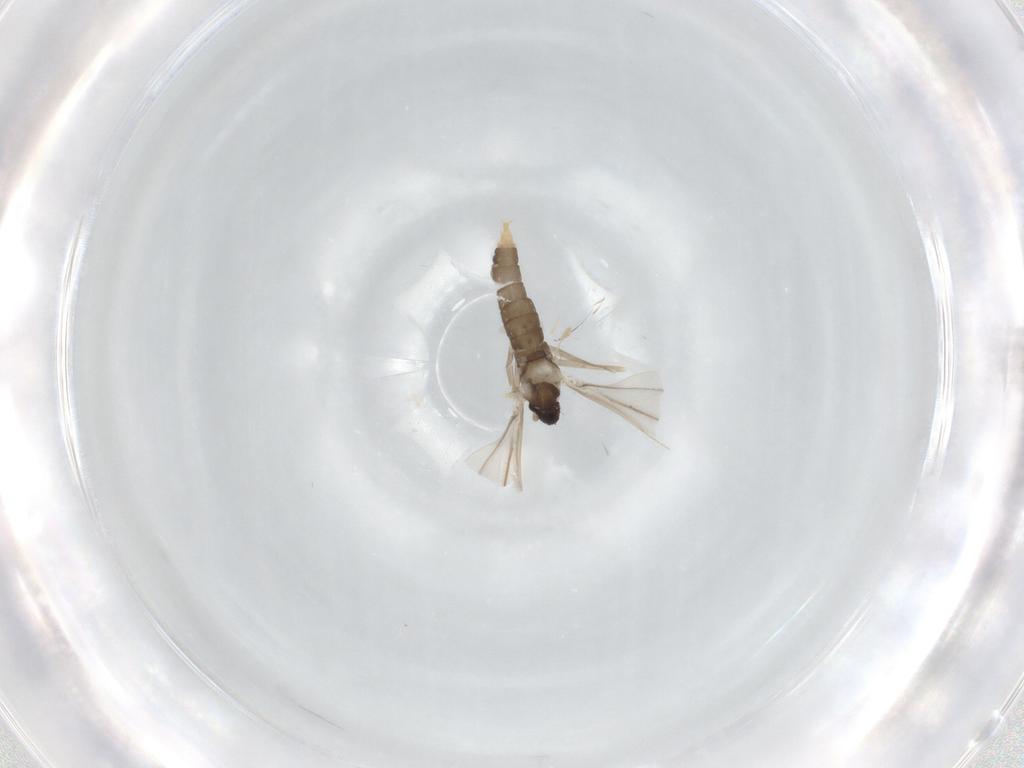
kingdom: Animalia
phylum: Arthropoda
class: Insecta
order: Diptera
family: Cecidomyiidae
